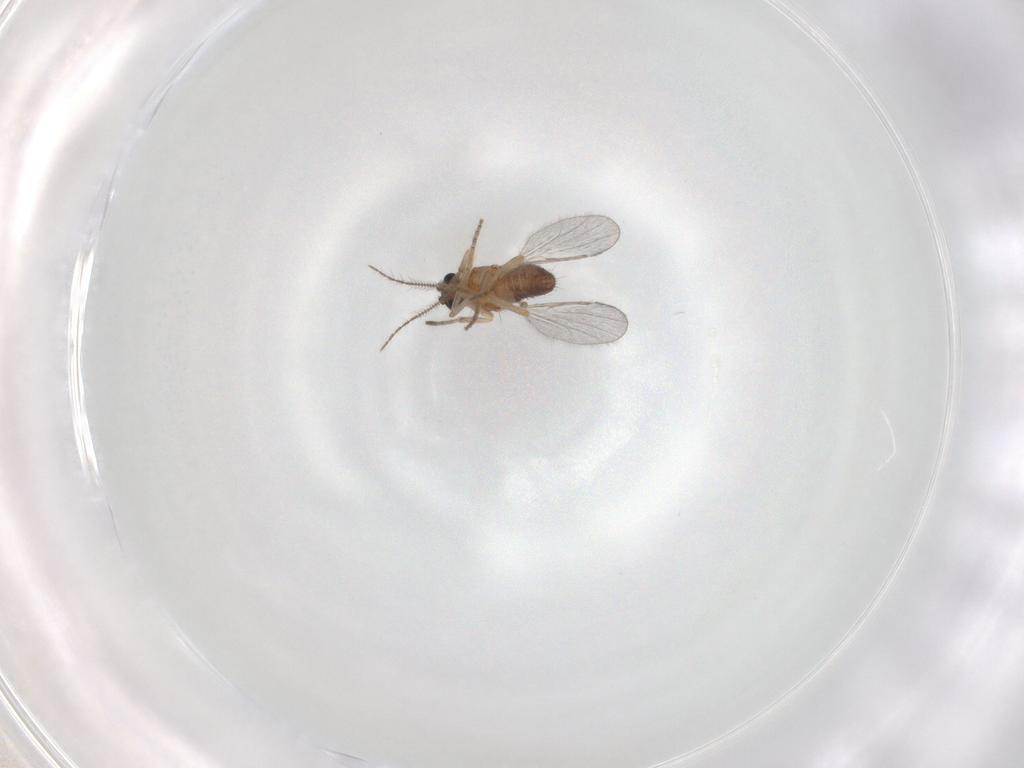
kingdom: Animalia
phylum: Arthropoda
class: Insecta
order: Diptera
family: Ceratopogonidae
